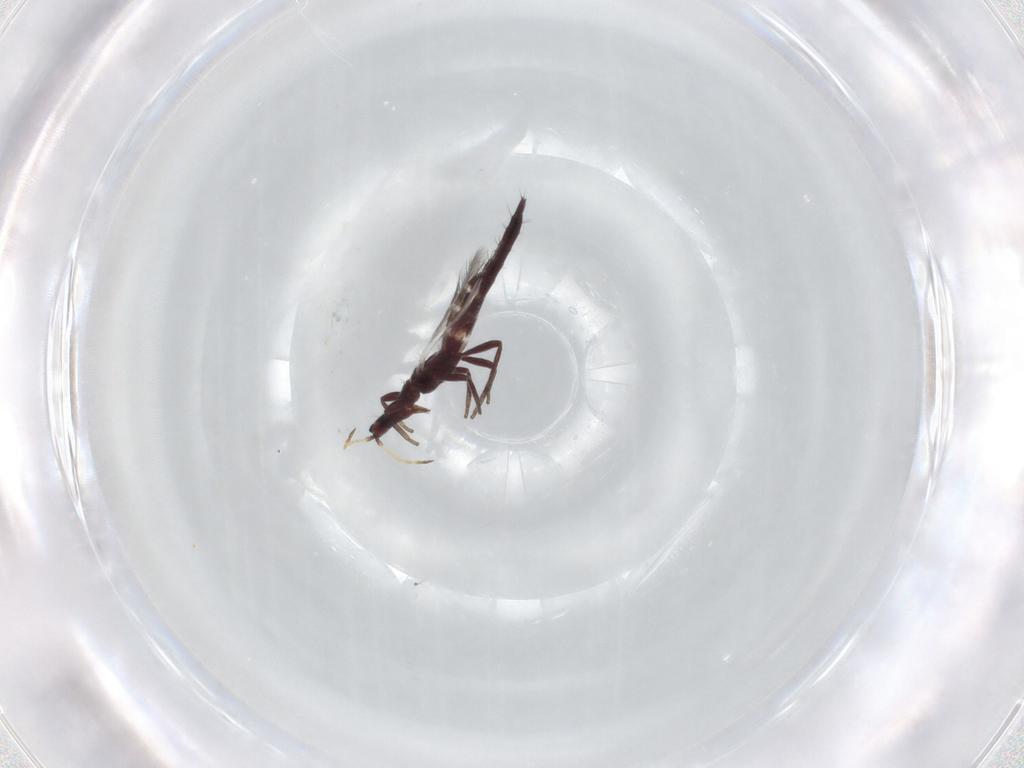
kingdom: Animalia
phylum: Arthropoda
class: Insecta
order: Thysanoptera
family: Phlaeothripidae
